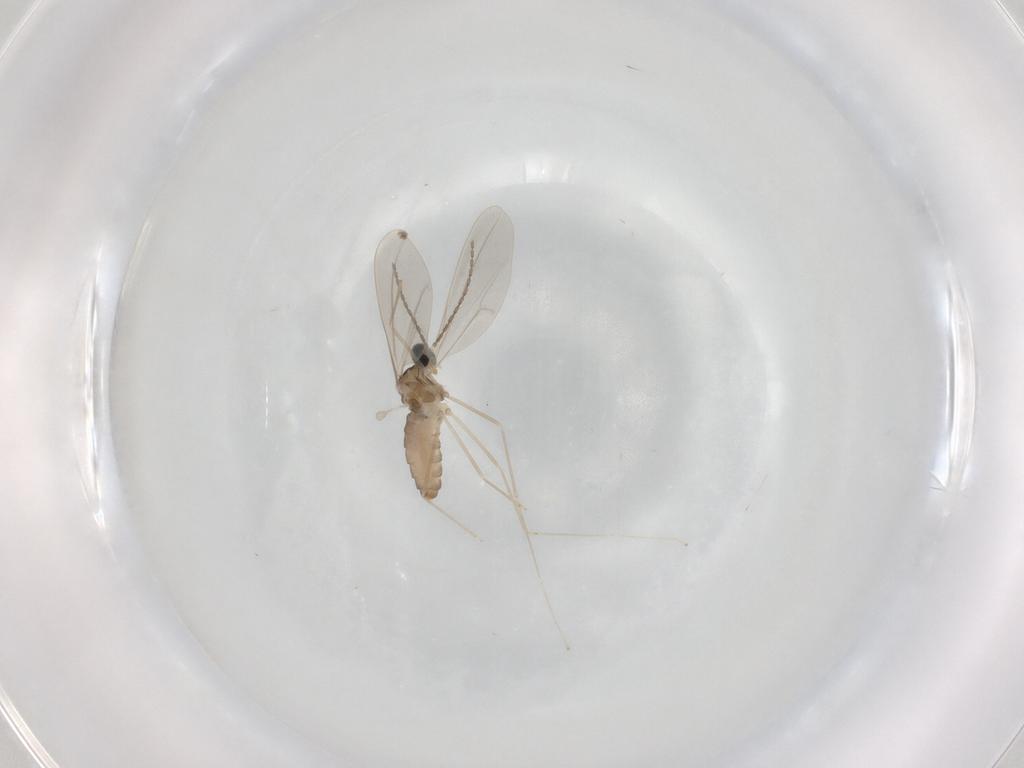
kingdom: Animalia
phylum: Arthropoda
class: Insecta
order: Diptera
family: Cecidomyiidae
